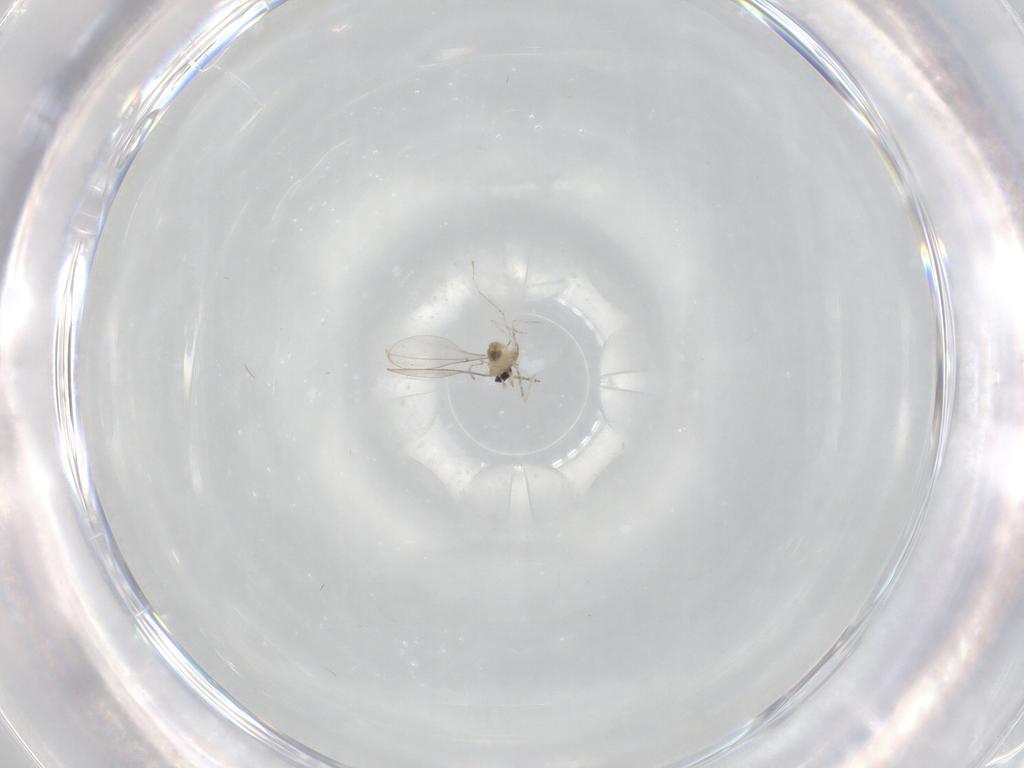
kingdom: Animalia
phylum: Arthropoda
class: Insecta
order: Diptera
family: Cecidomyiidae
